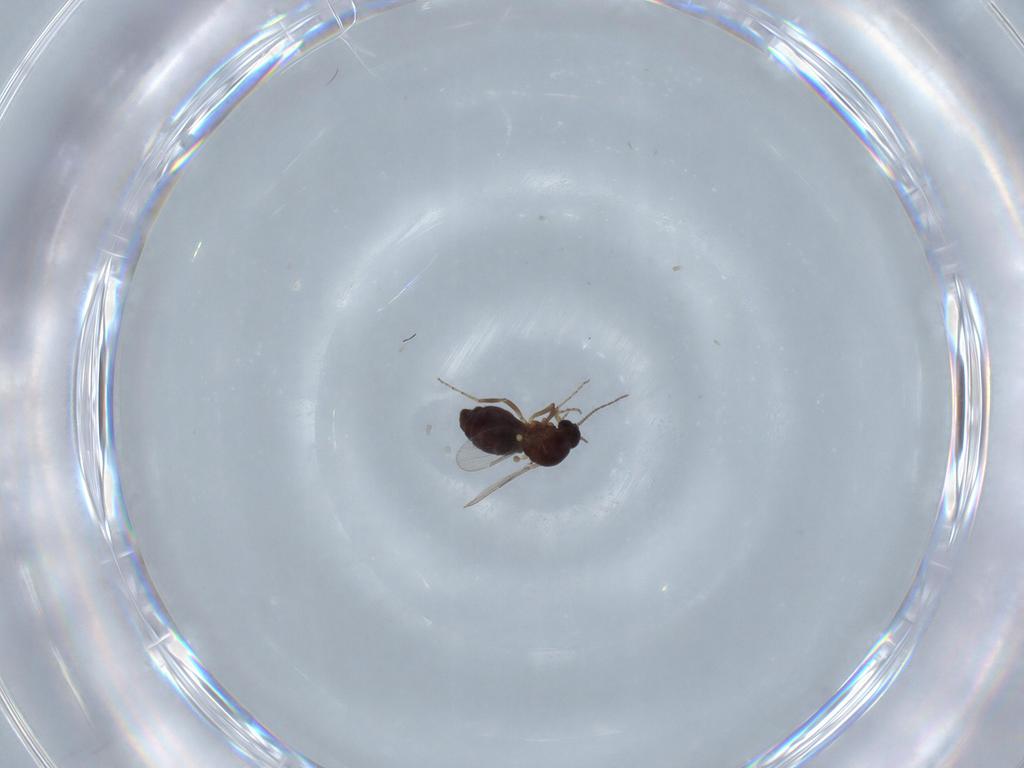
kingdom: Animalia
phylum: Arthropoda
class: Insecta
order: Diptera
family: Ceratopogonidae
